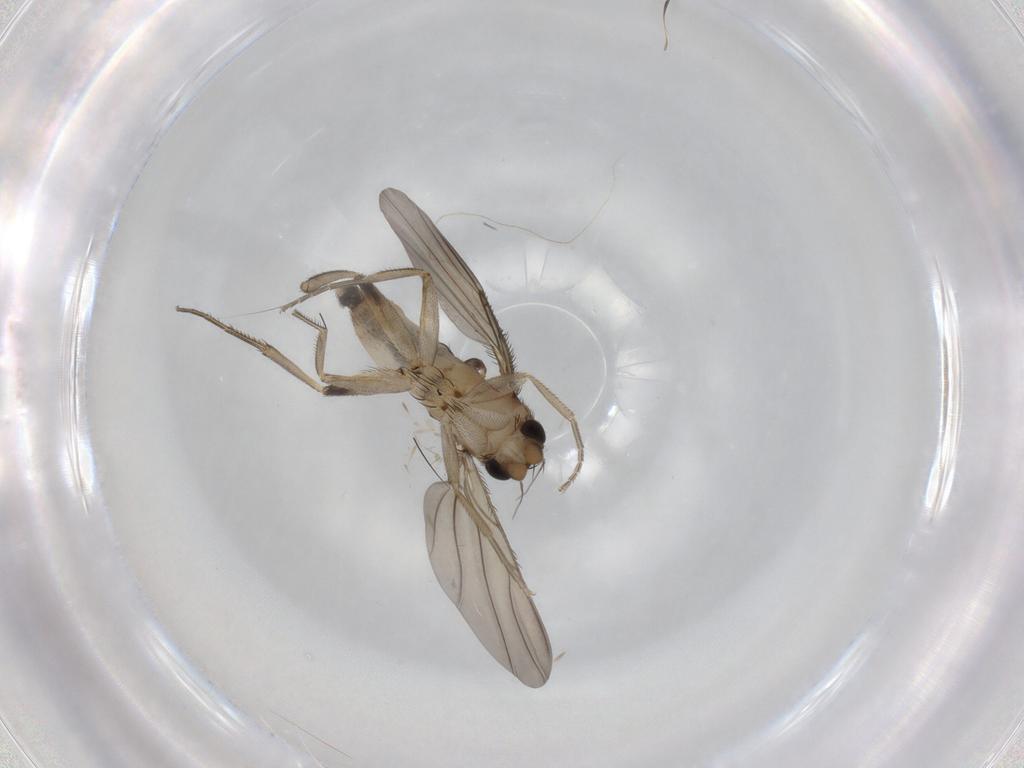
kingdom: Animalia
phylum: Arthropoda
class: Insecta
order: Diptera
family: Phoridae
